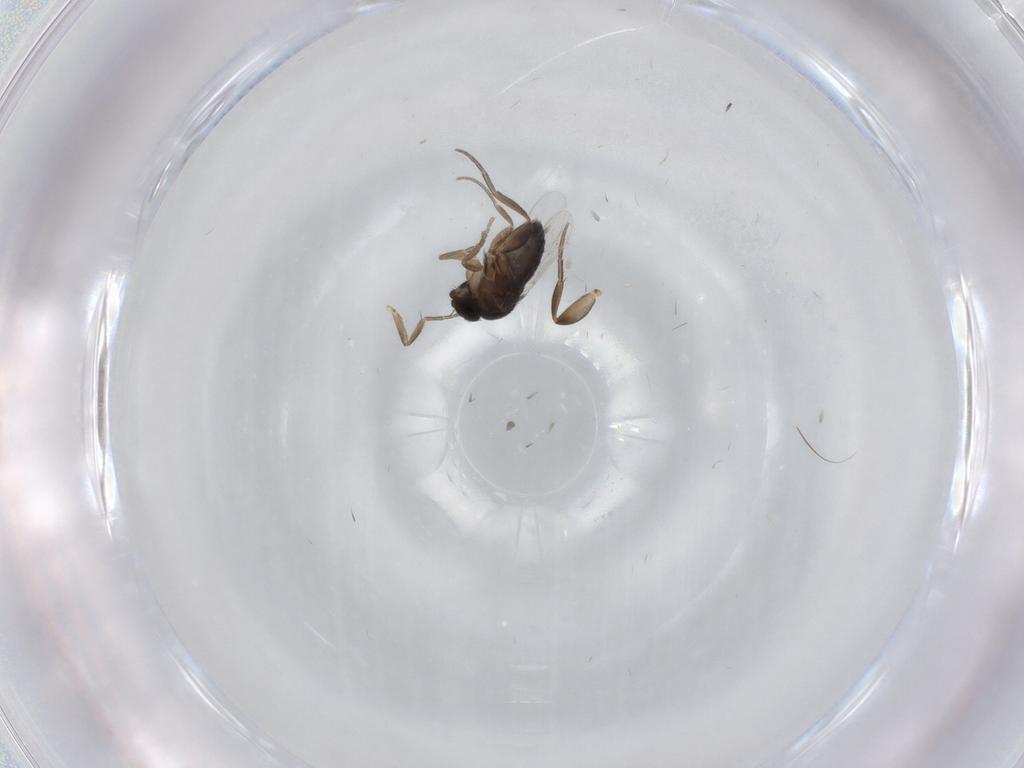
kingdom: Animalia
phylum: Arthropoda
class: Insecta
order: Diptera
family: Phoridae
